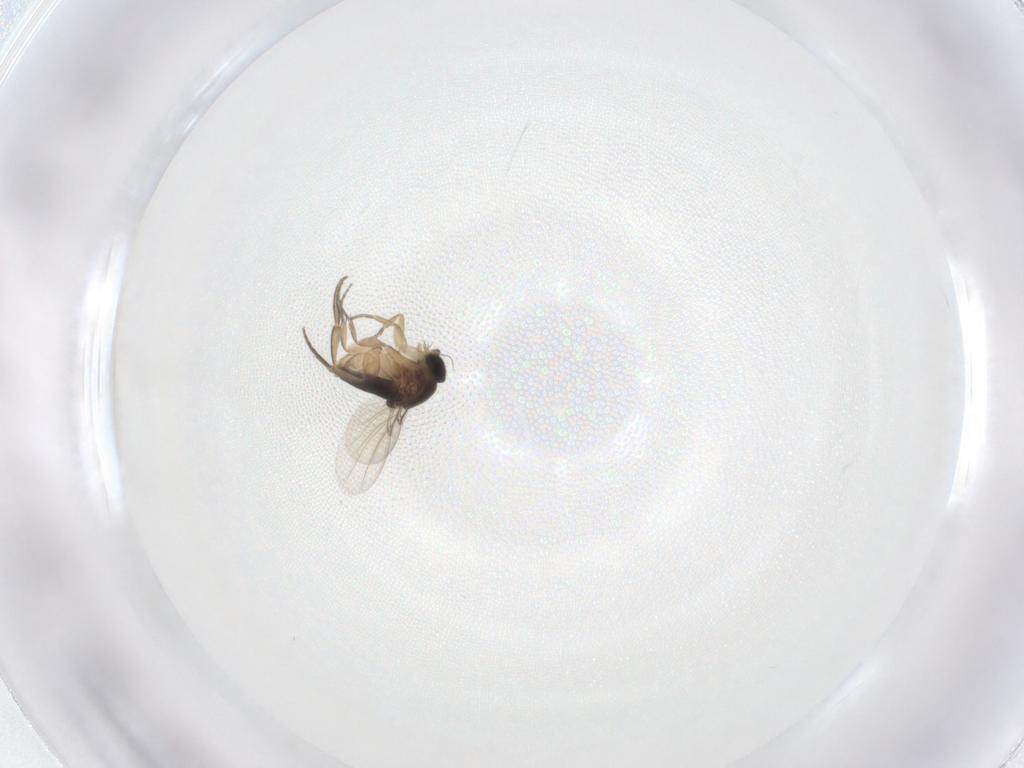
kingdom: Animalia
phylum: Arthropoda
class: Insecta
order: Diptera
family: Phoridae
